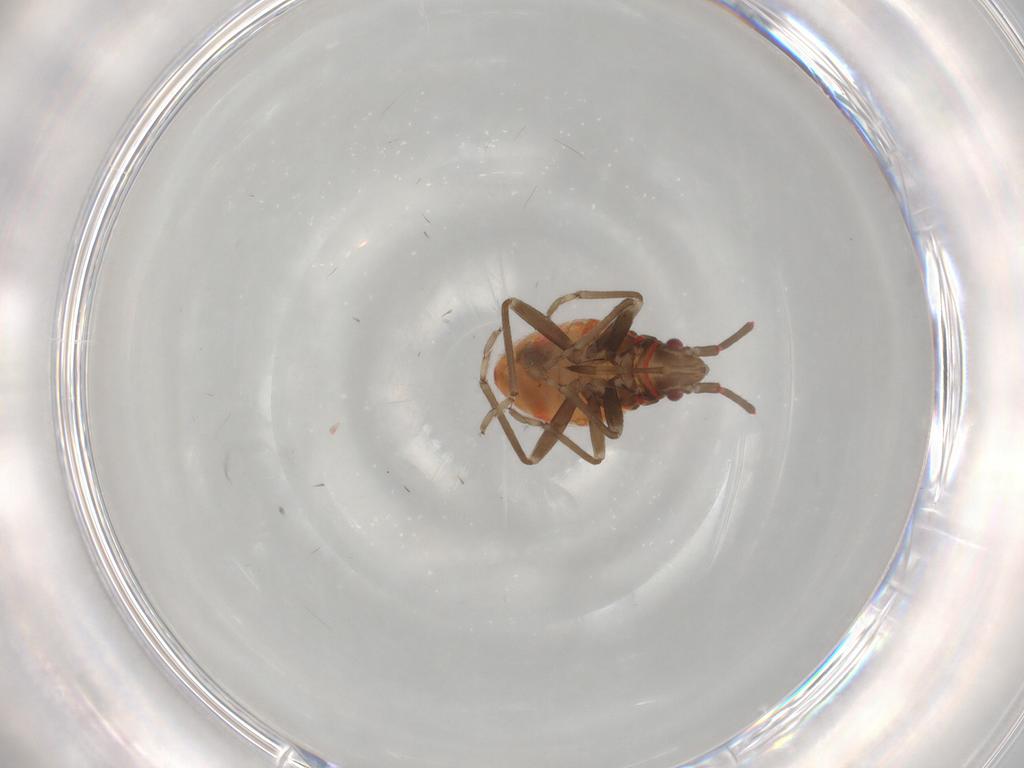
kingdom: Animalia
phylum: Arthropoda
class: Insecta
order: Hemiptera
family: Rhyparochromidae
